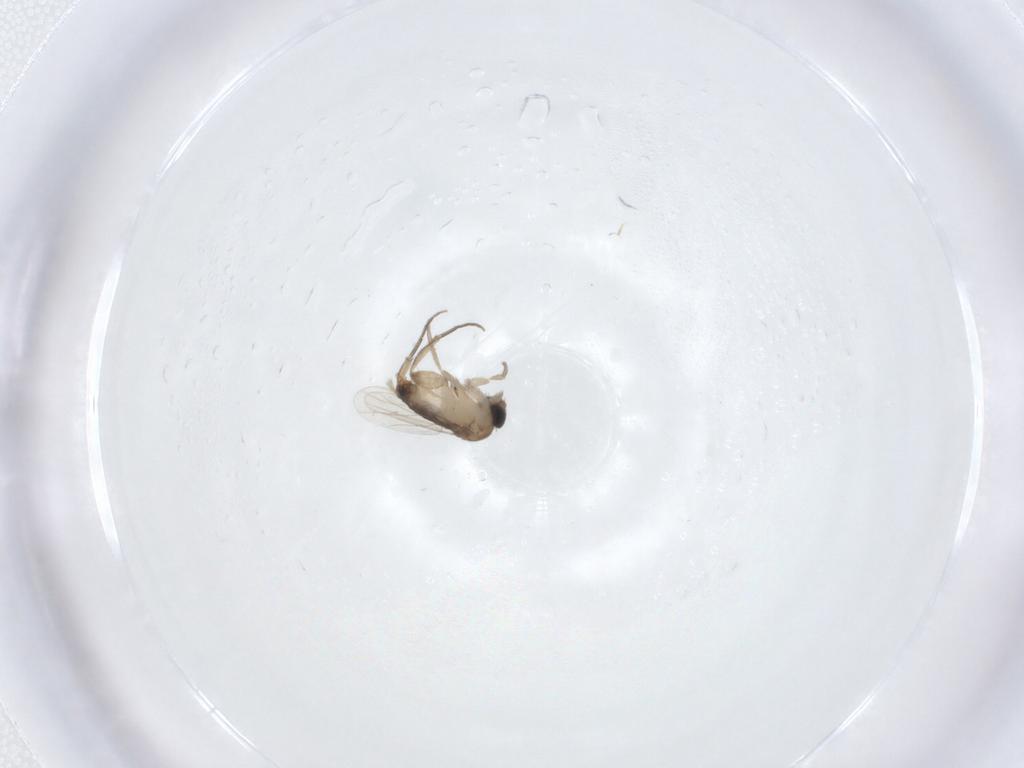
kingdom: Animalia
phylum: Arthropoda
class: Insecta
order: Diptera
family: Phoridae
